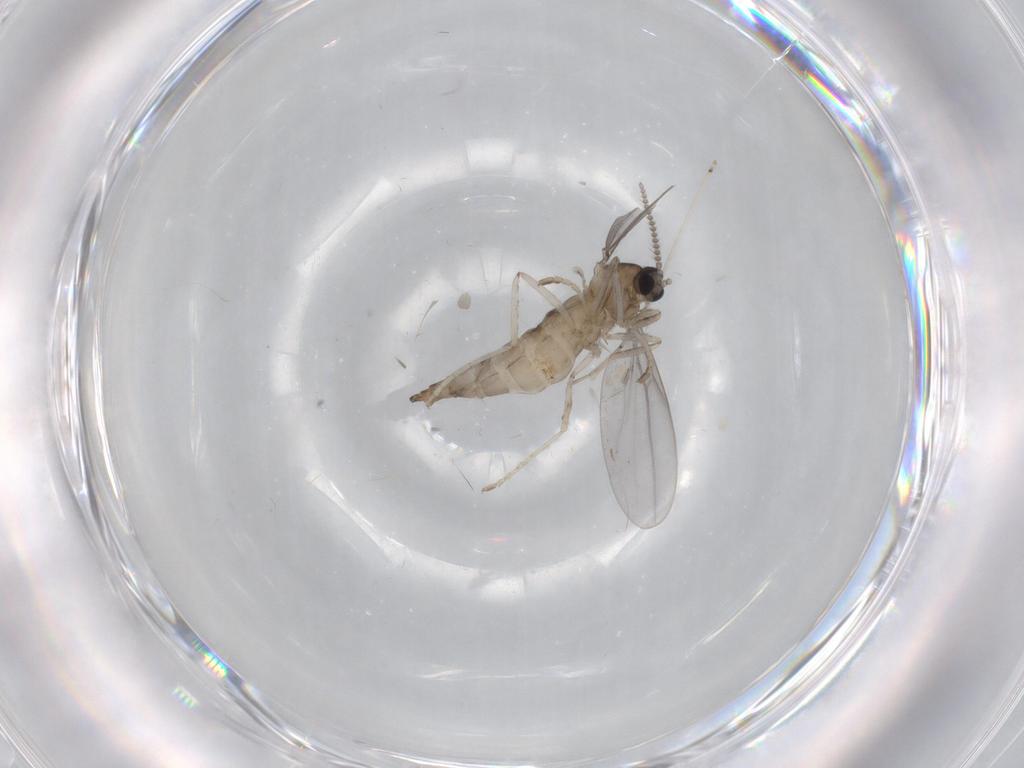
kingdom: Animalia
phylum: Arthropoda
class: Insecta
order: Diptera
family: Cecidomyiidae
